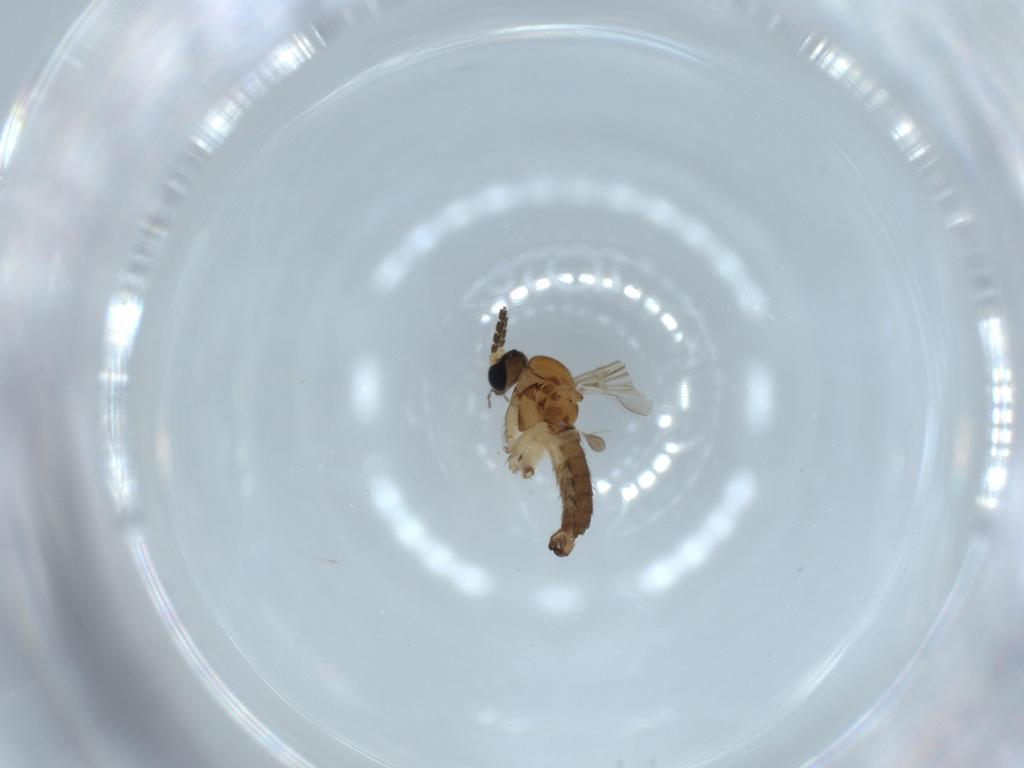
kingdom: Animalia
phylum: Arthropoda
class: Insecta
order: Diptera
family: Sciaridae
